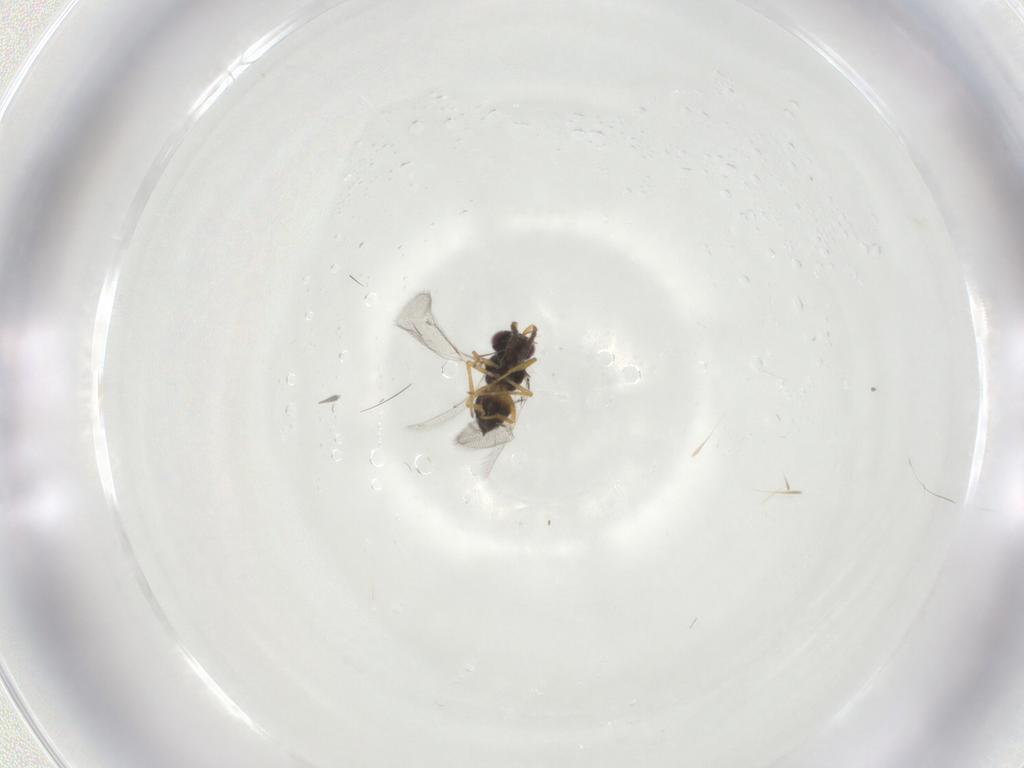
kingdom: Animalia
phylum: Arthropoda
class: Insecta
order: Hymenoptera
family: Eulophidae
